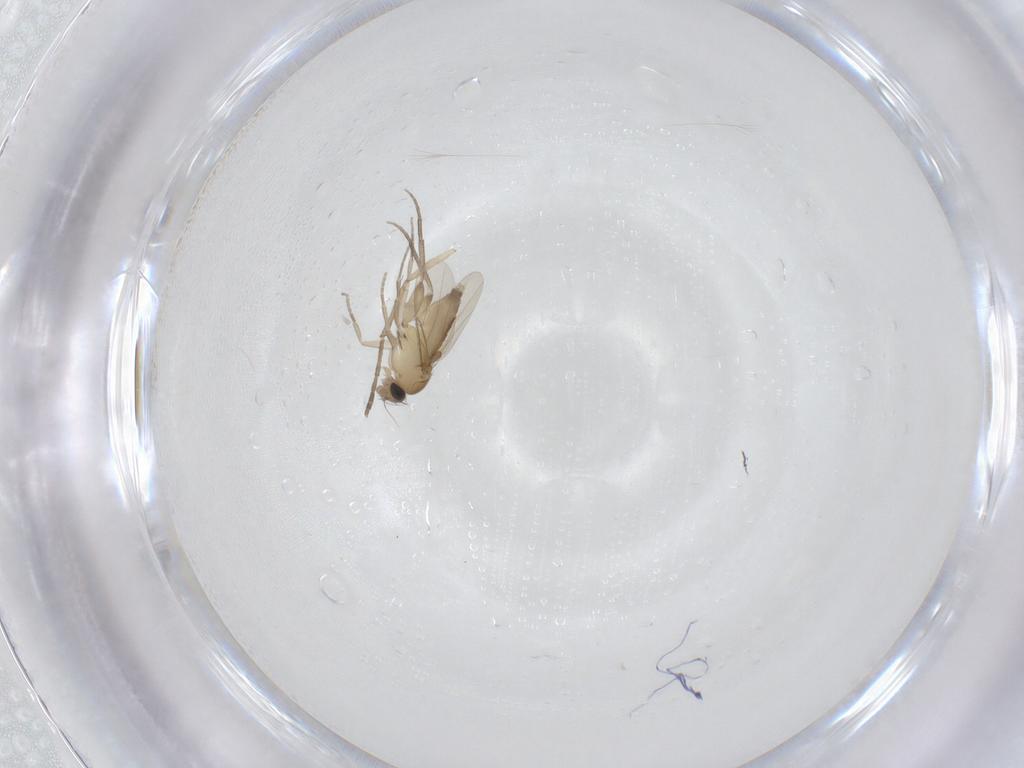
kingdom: Animalia
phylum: Arthropoda
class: Insecta
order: Diptera
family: Phoridae
